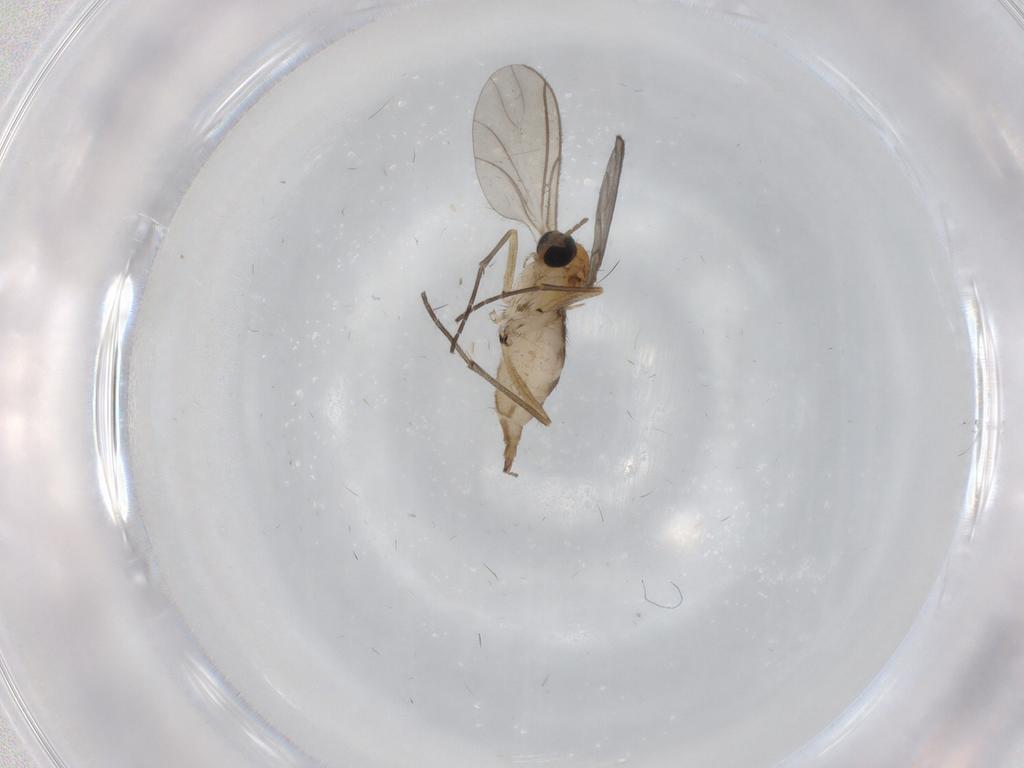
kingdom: Animalia
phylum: Arthropoda
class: Insecta
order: Diptera
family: Sciaridae
